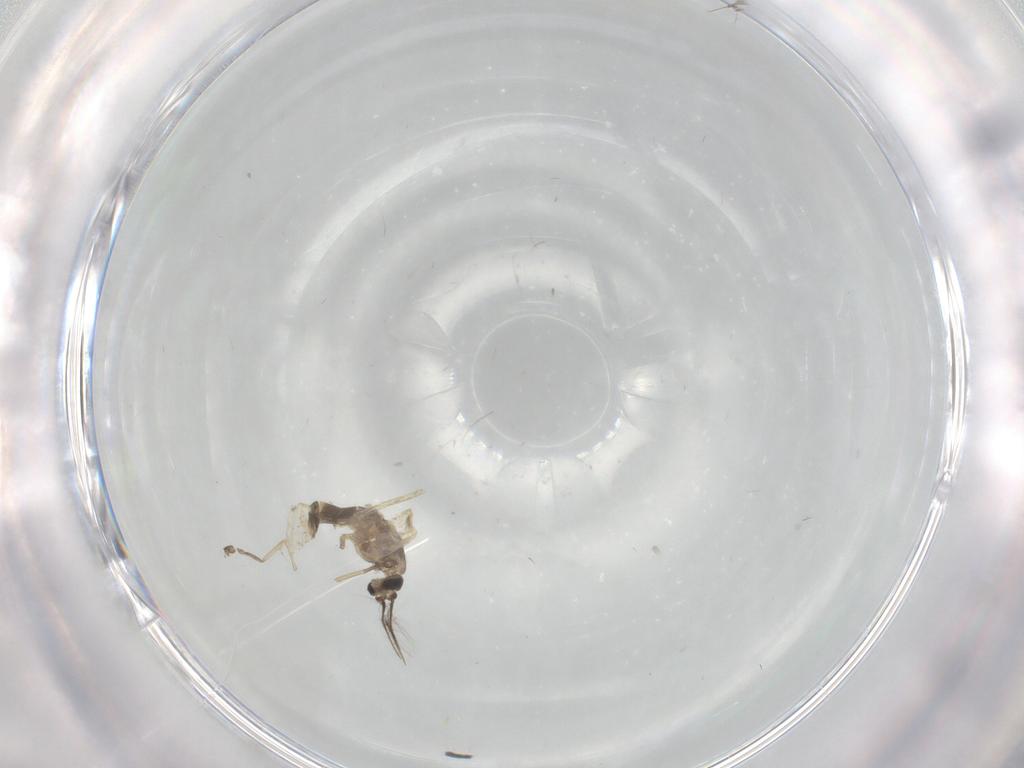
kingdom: Animalia
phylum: Arthropoda
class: Insecta
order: Diptera
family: Chironomidae
